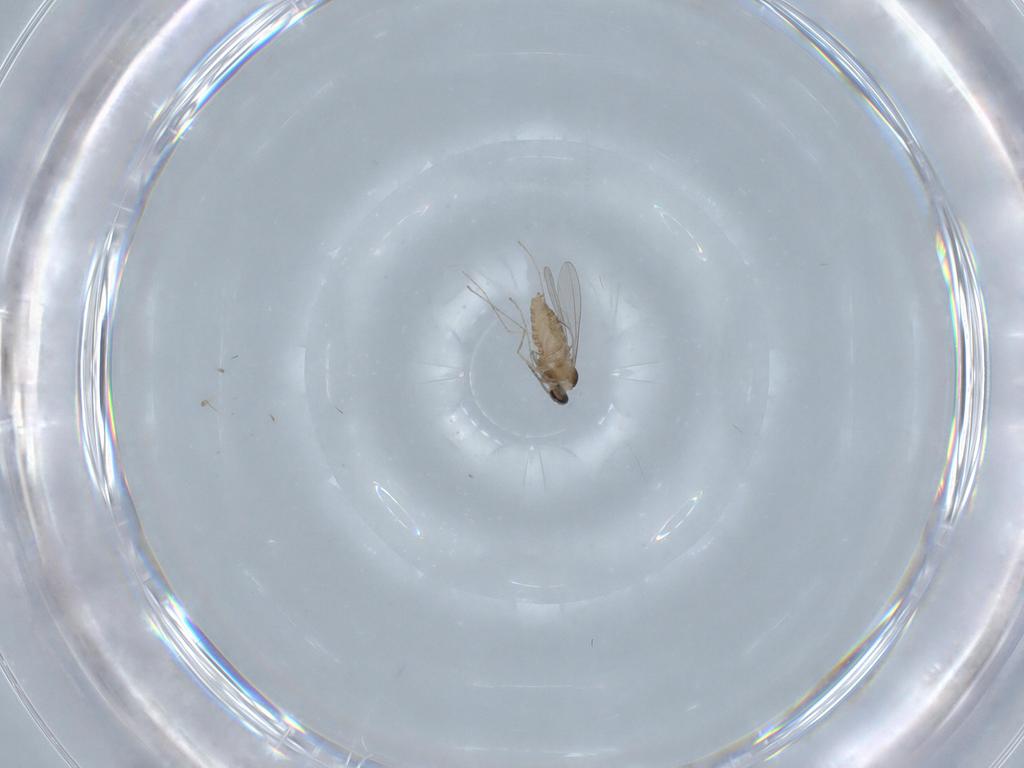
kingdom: Animalia
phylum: Arthropoda
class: Insecta
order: Diptera
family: Cecidomyiidae
